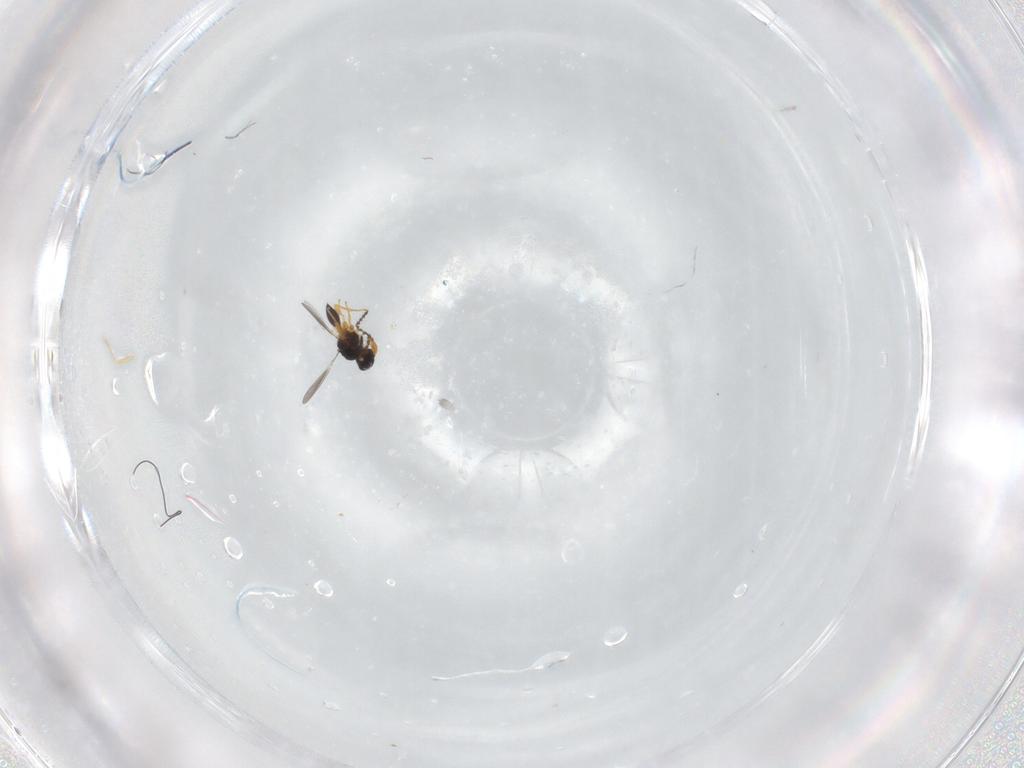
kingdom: Animalia
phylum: Arthropoda
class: Insecta
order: Hymenoptera
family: Platygastridae
